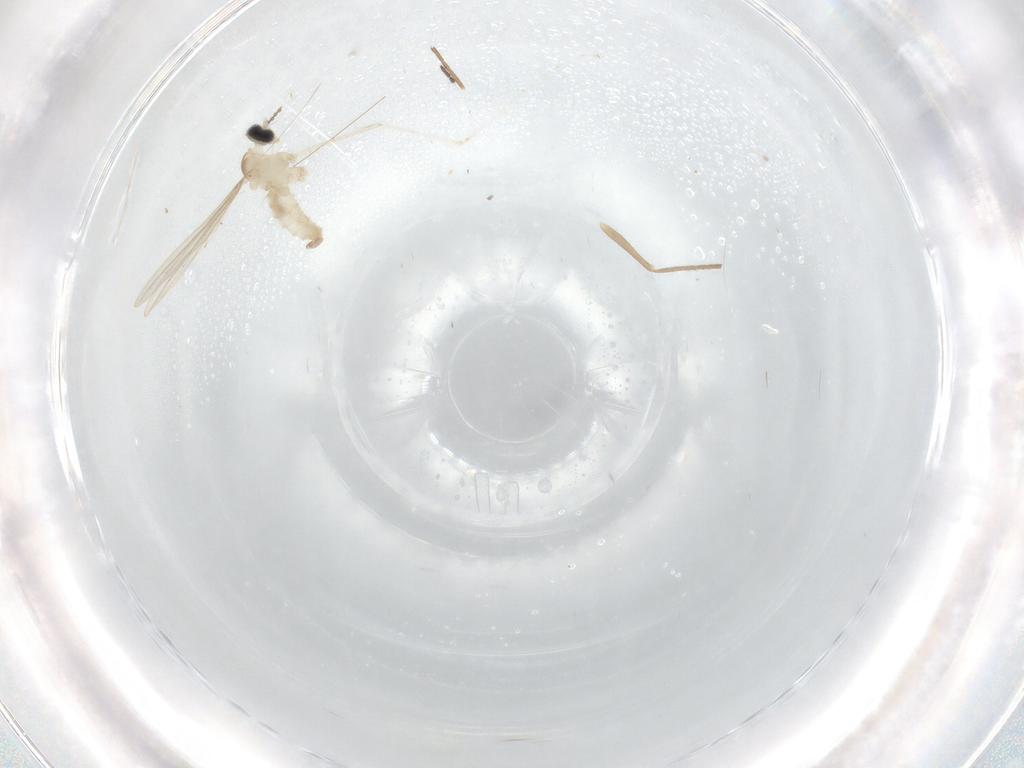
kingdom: Animalia
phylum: Arthropoda
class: Insecta
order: Diptera
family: Chironomidae
